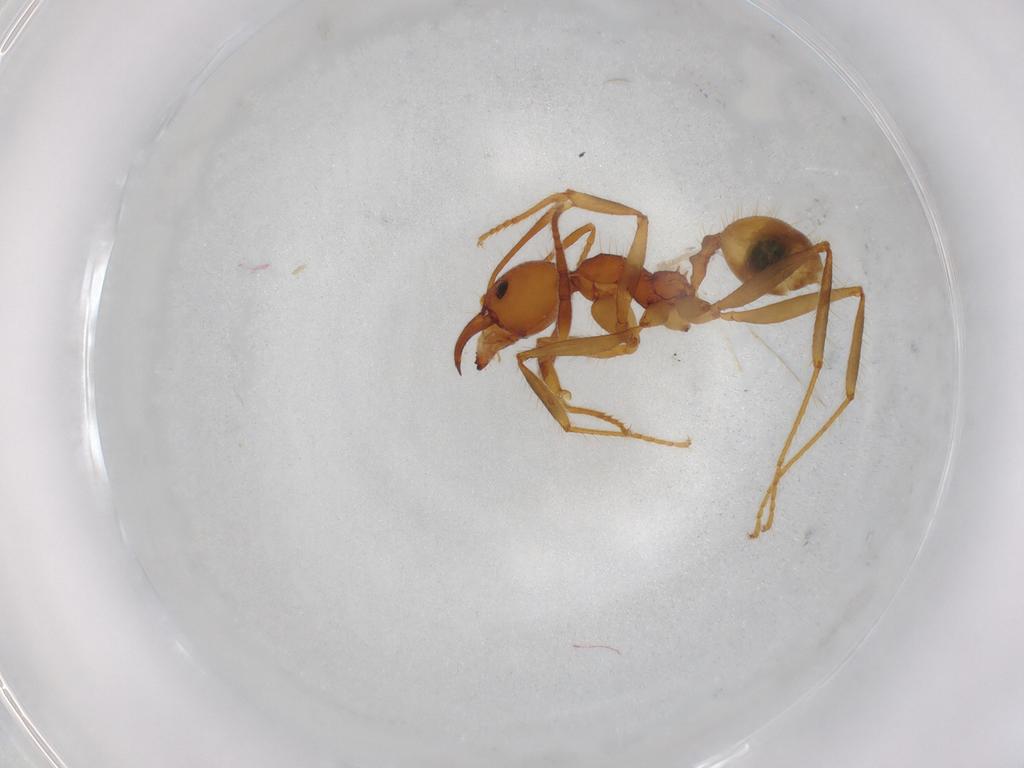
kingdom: Animalia
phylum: Arthropoda
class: Insecta
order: Hymenoptera
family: Formicidae
